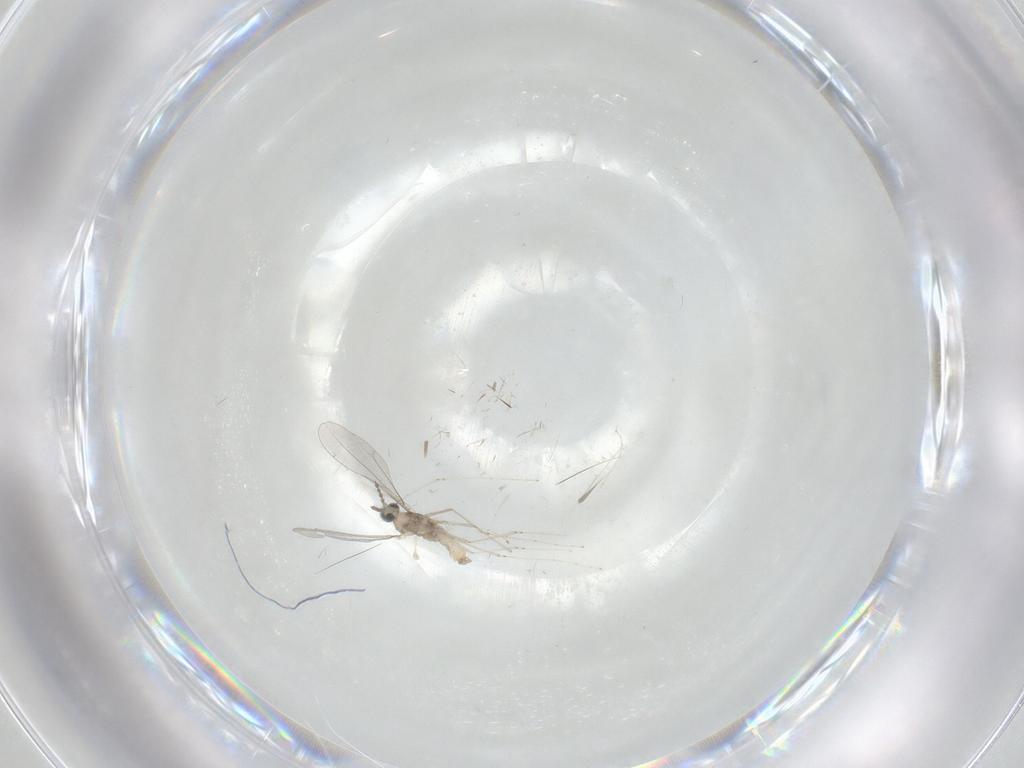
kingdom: Animalia
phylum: Arthropoda
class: Insecta
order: Diptera
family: Cecidomyiidae
